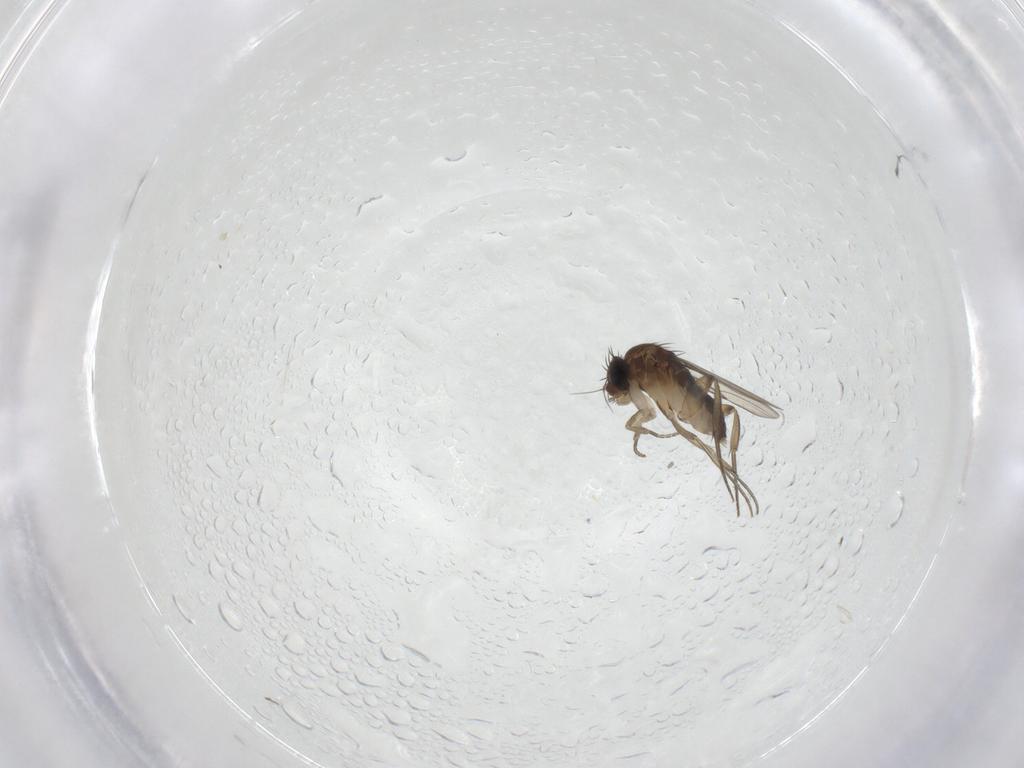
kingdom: Animalia
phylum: Arthropoda
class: Insecta
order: Diptera
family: Phoridae
